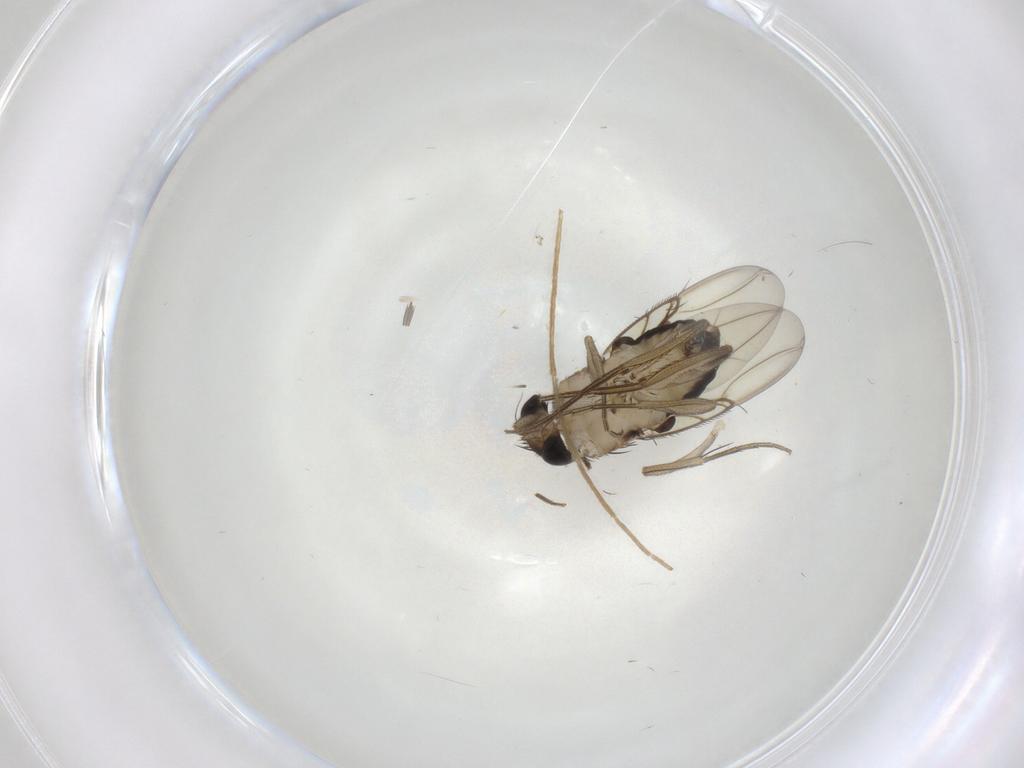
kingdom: Animalia
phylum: Arthropoda
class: Insecta
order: Diptera
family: Phoridae
